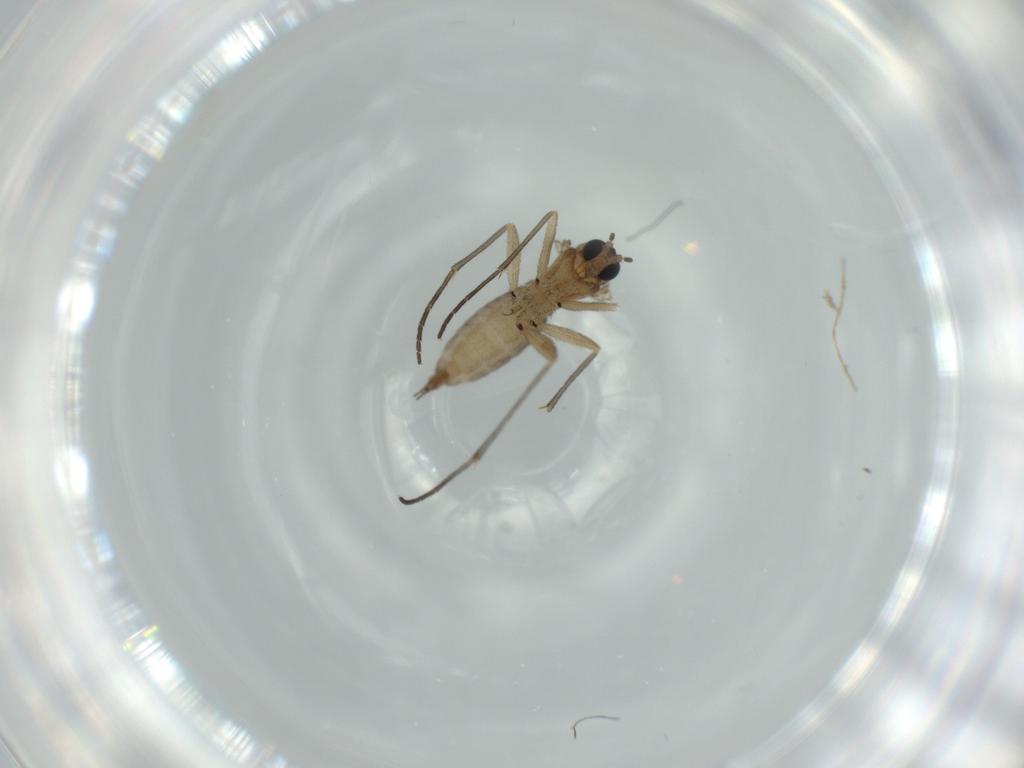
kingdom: Animalia
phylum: Arthropoda
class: Insecta
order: Diptera
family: Sciaridae
